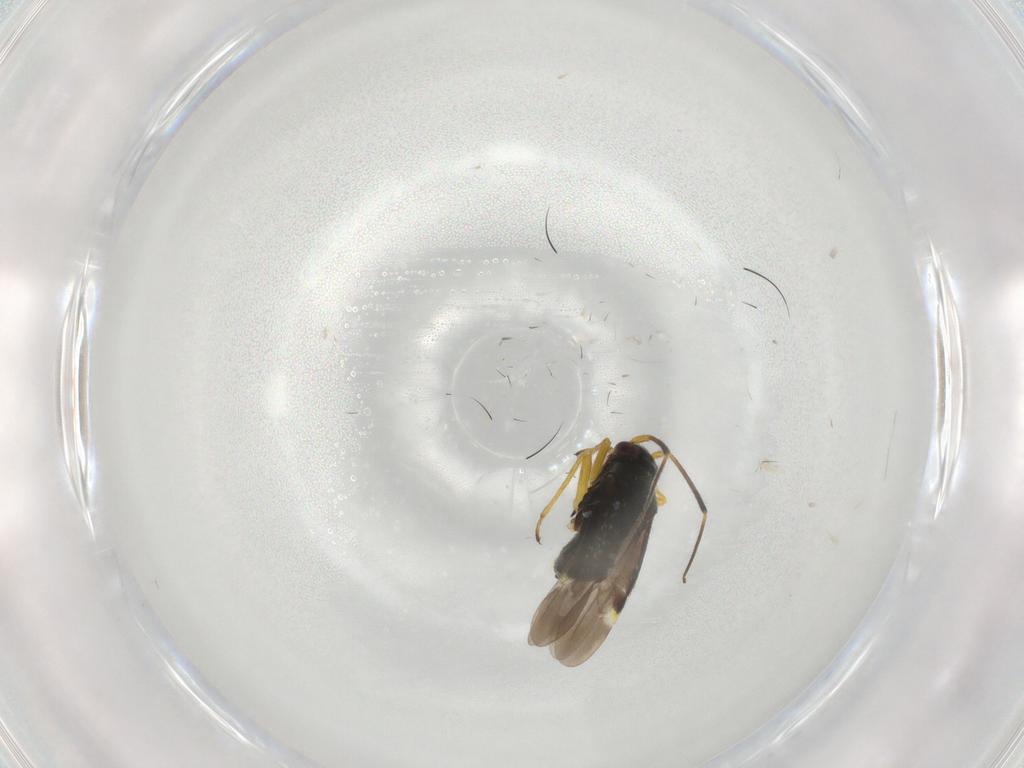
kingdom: Animalia
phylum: Arthropoda
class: Insecta
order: Hemiptera
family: Miridae
